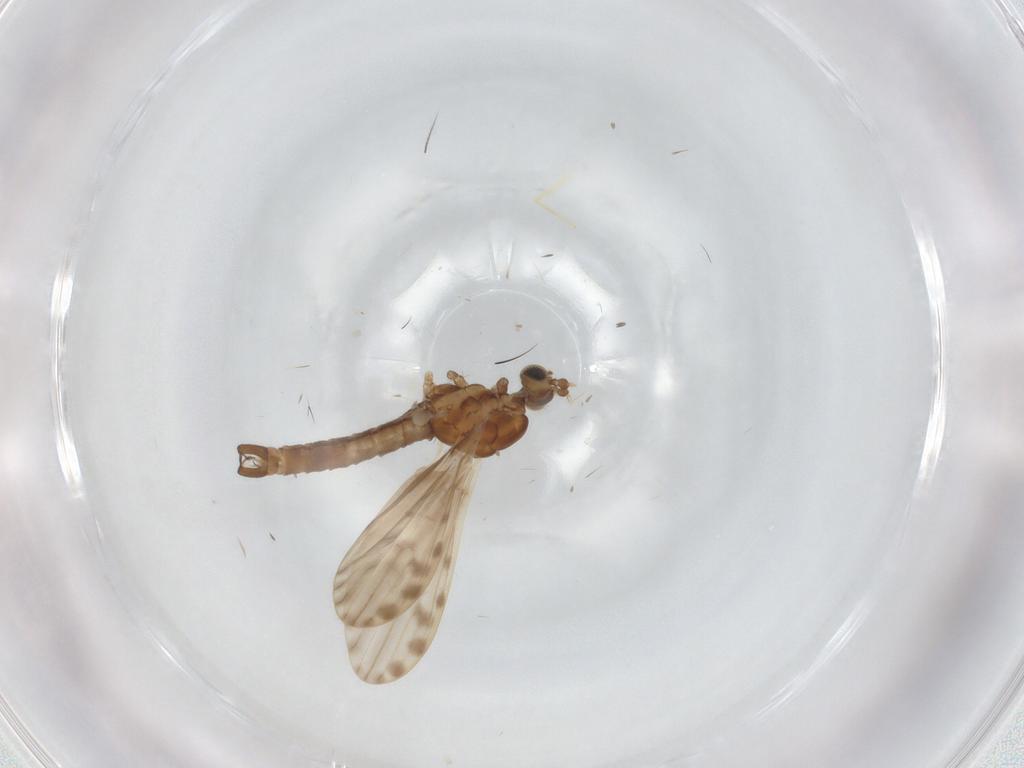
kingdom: Animalia
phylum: Arthropoda
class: Insecta
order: Diptera
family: Limoniidae
